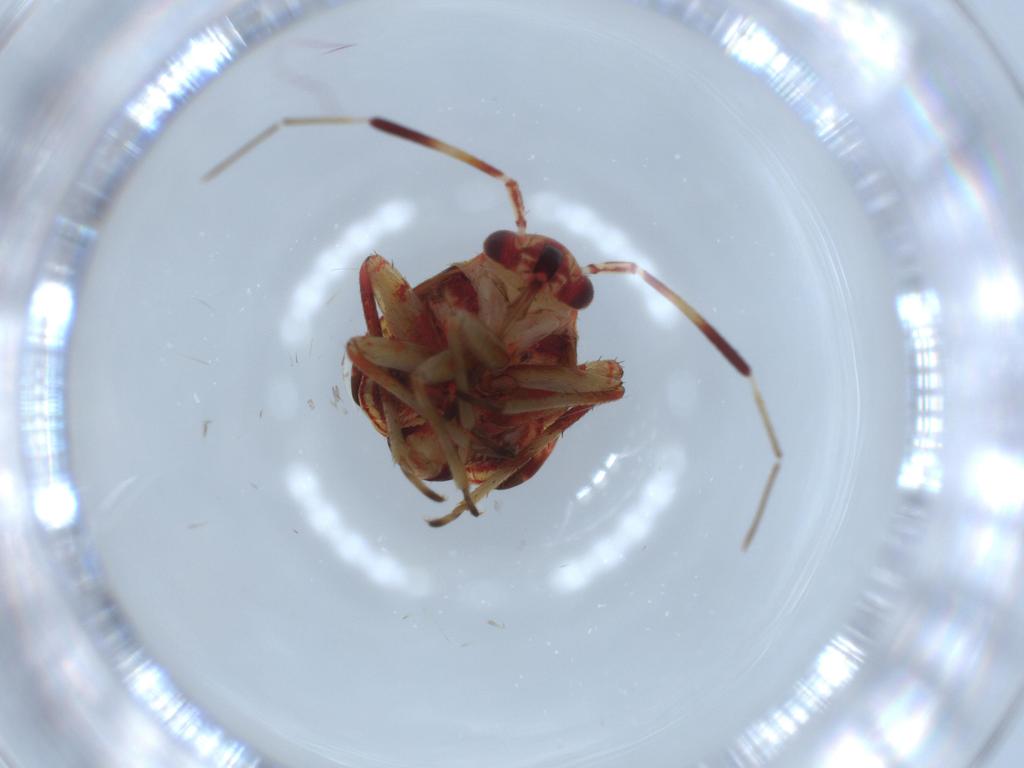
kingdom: Animalia
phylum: Arthropoda
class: Insecta
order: Hemiptera
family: Miridae
